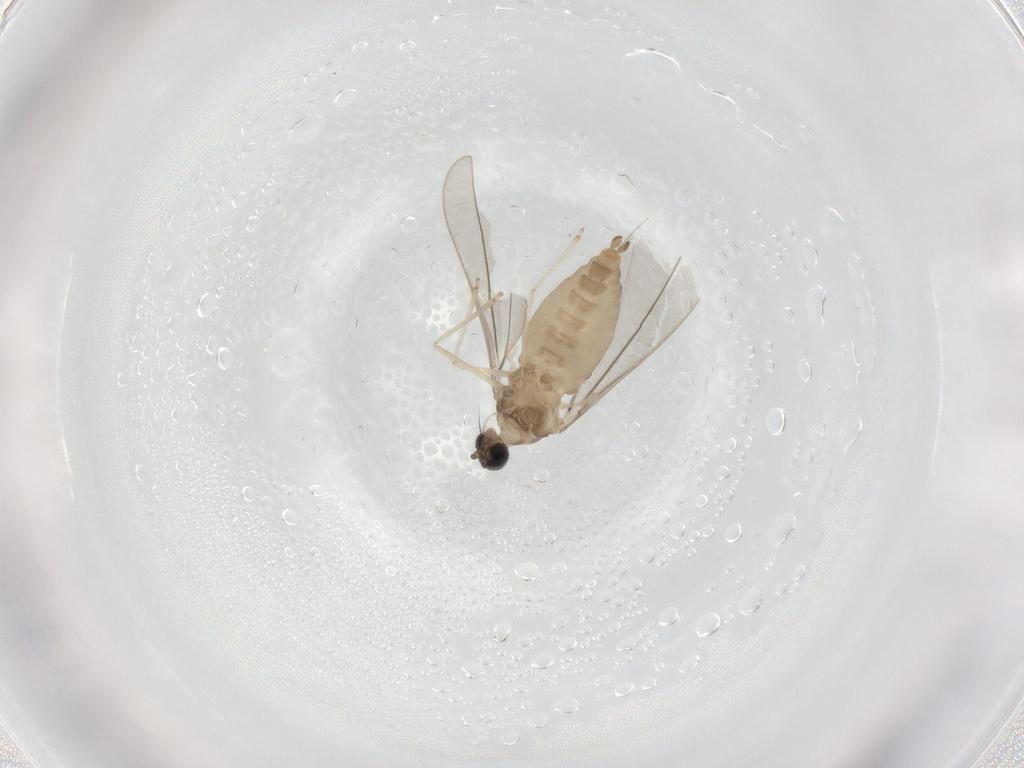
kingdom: Animalia
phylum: Arthropoda
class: Insecta
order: Diptera
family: Cecidomyiidae
